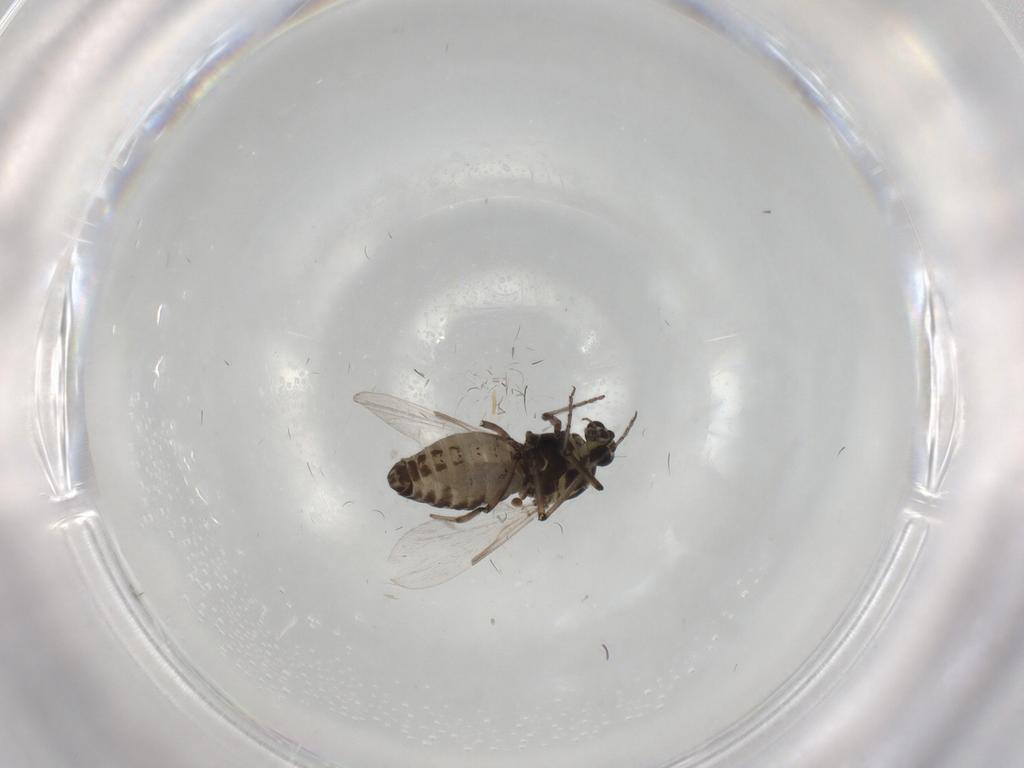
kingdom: Animalia
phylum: Arthropoda
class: Insecta
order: Diptera
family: Ceratopogonidae
